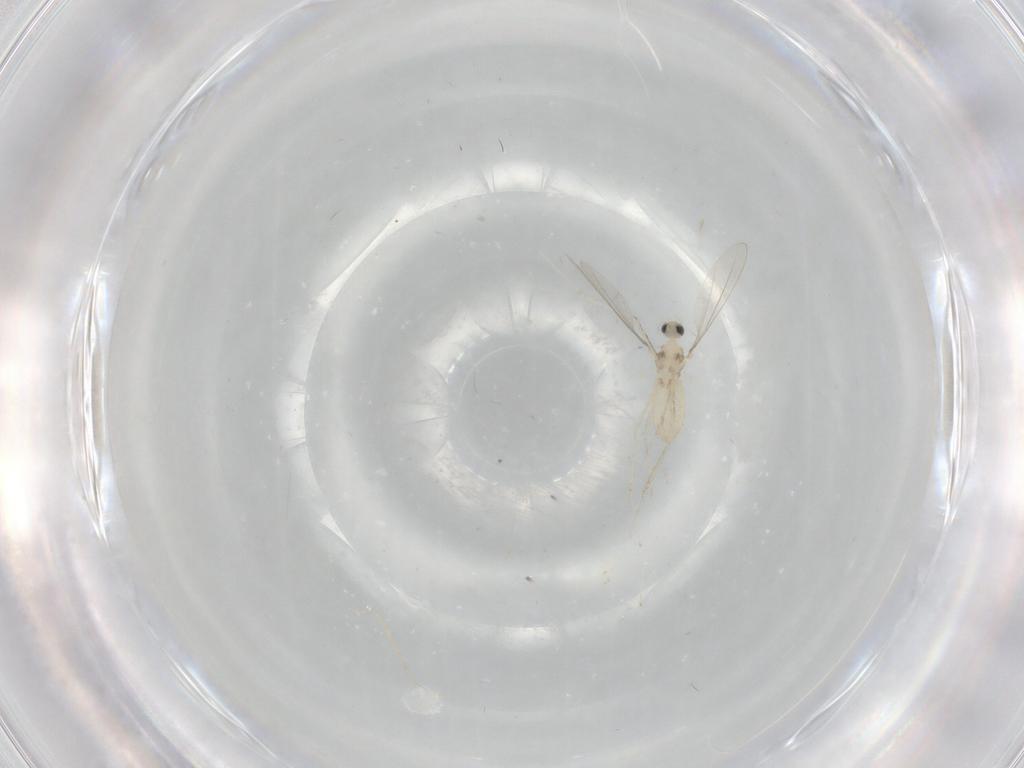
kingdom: Animalia
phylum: Arthropoda
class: Insecta
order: Diptera
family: Cecidomyiidae
